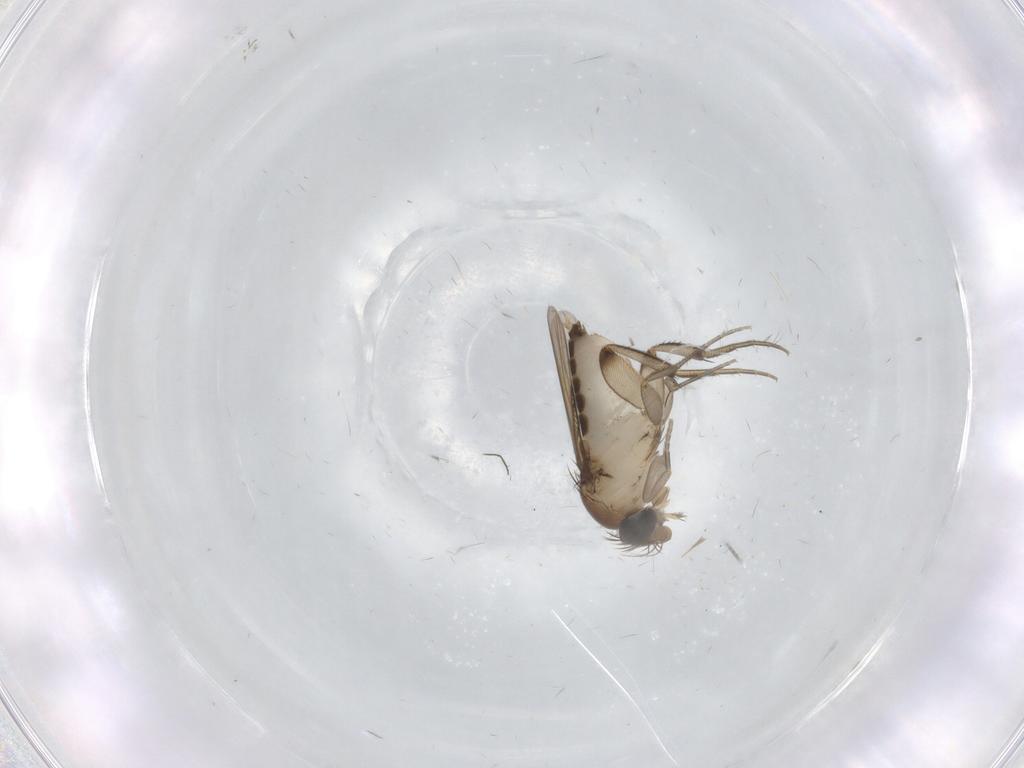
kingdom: Animalia
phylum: Arthropoda
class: Insecta
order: Diptera
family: Phoridae
